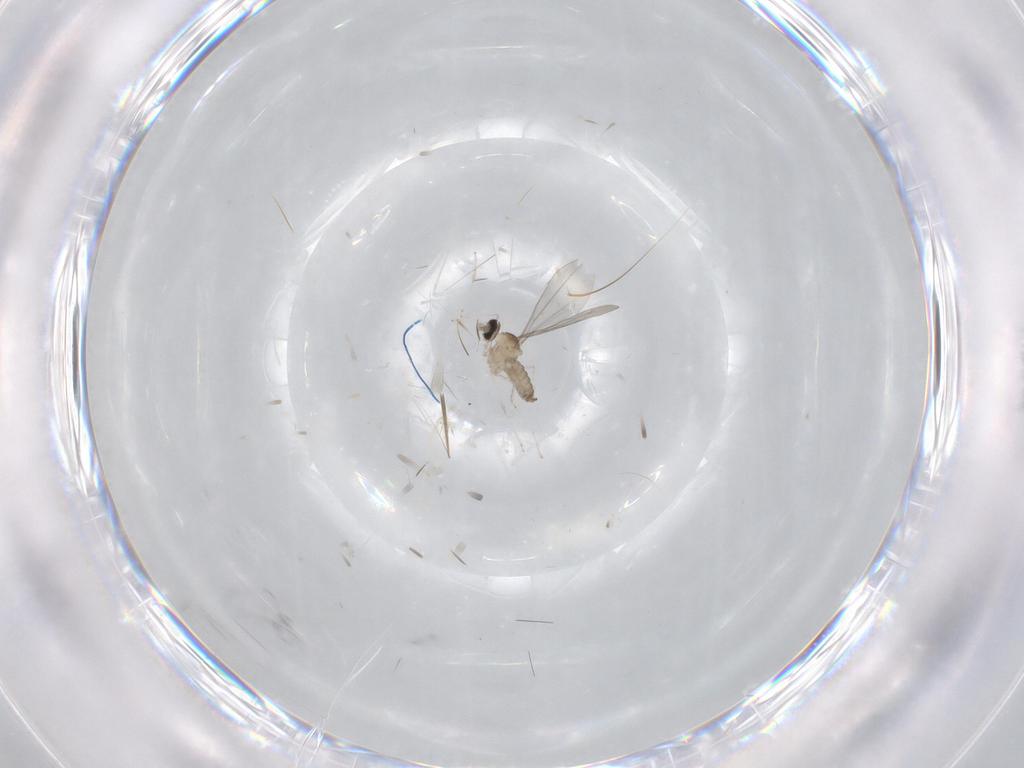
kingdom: Animalia
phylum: Arthropoda
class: Insecta
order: Diptera
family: Cecidomyiidae
